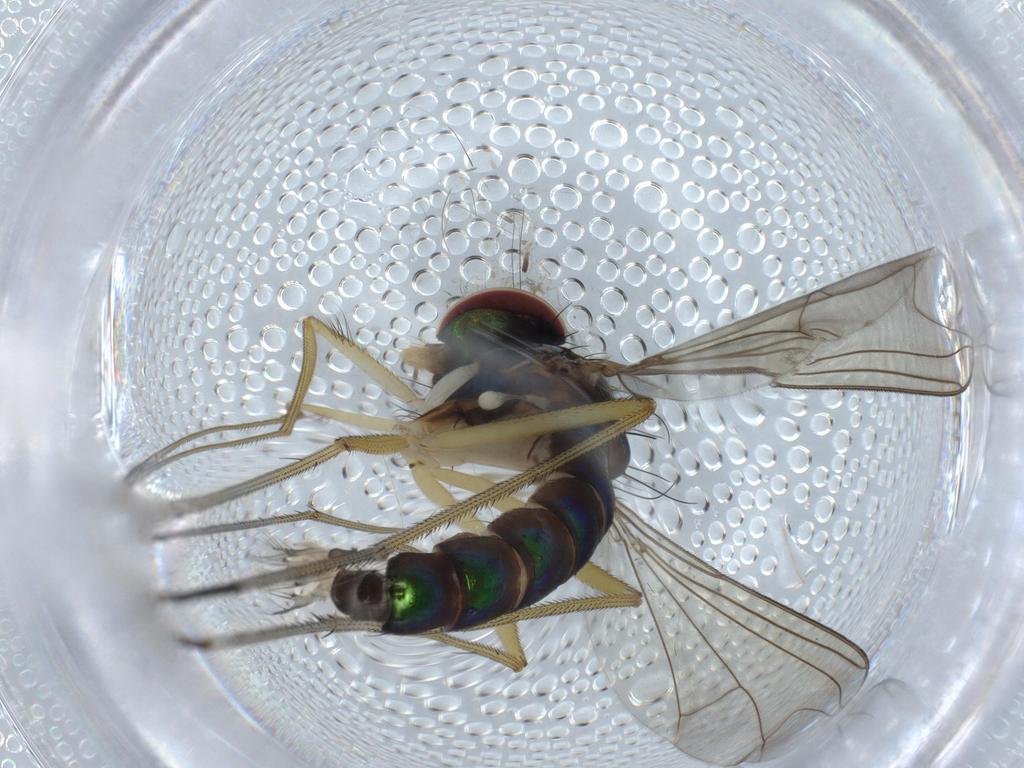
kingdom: Animalia
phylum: Arthropoda
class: Insecta
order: Diptera
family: Dolichopodidae
